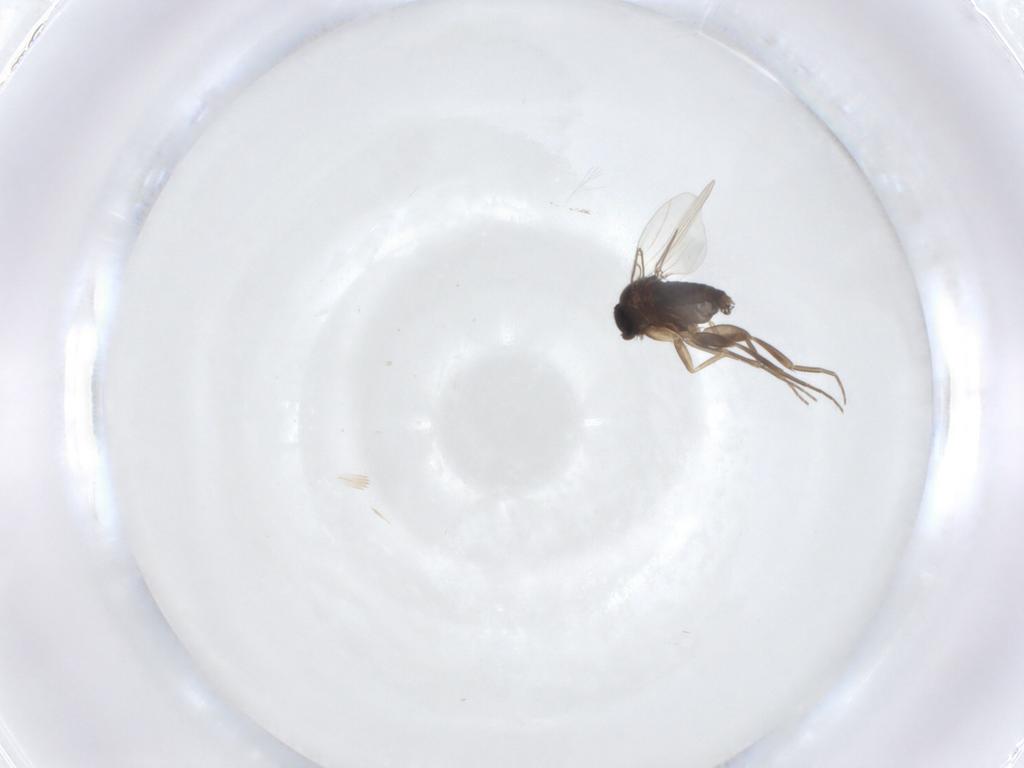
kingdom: Animalia
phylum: Arthropoda
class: Insecta
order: Diptera
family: Phoridae
